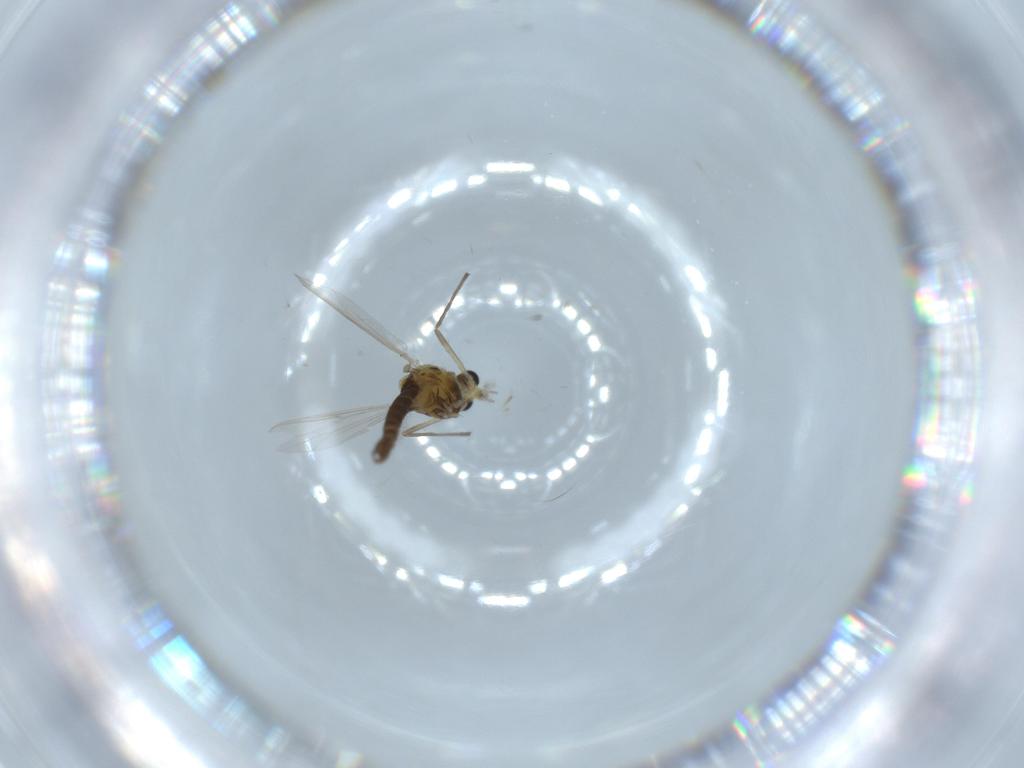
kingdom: Animalia
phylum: Arthropoda
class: Insecta
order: Diptera
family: Chironomidae
